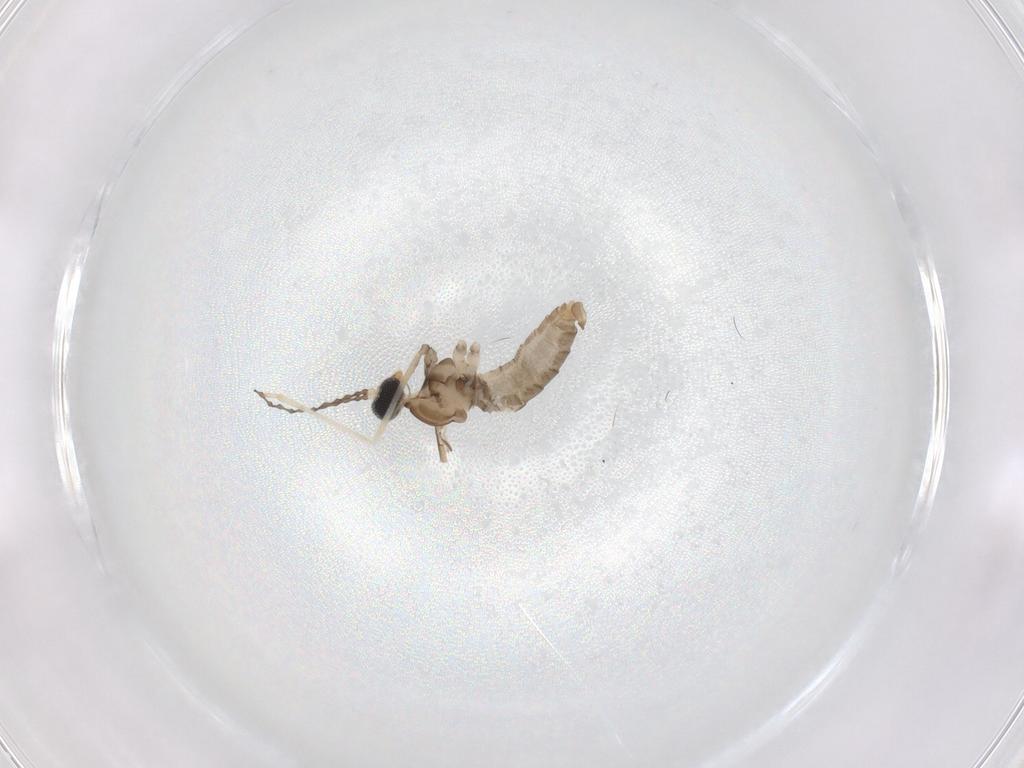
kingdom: Animalia
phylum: Arthropoda
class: Insecta
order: Diptera
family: Cecidomyiidae
